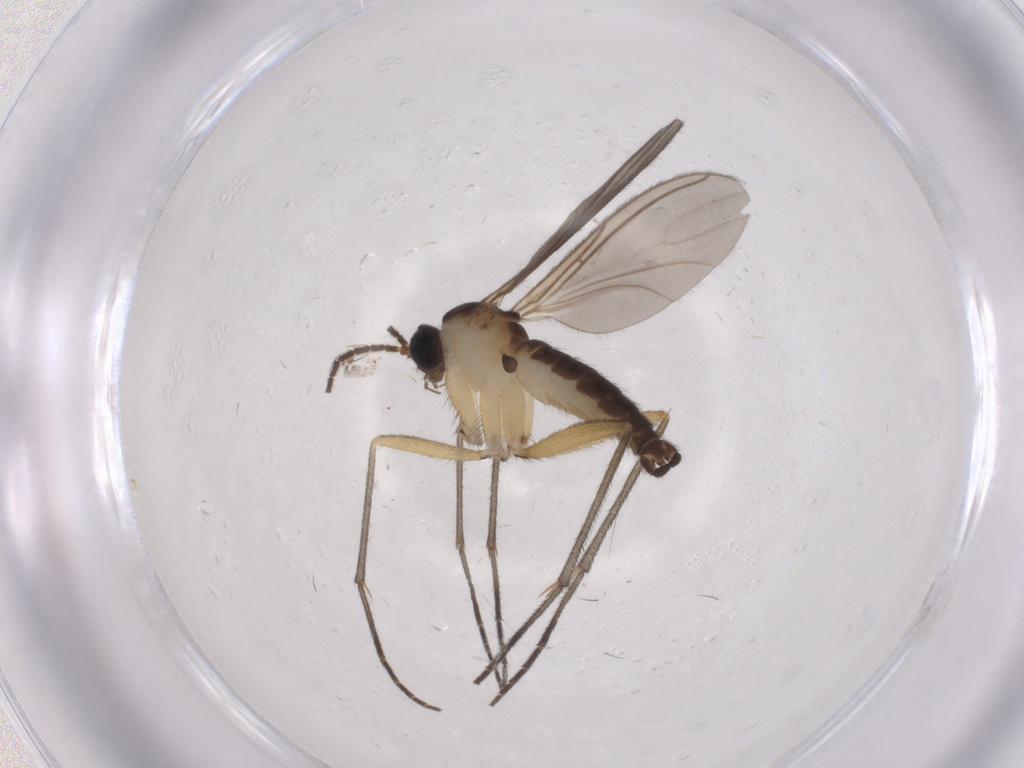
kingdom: Animalia
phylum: Arthropoda
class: Insecta
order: Diptera
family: Sciaridae
